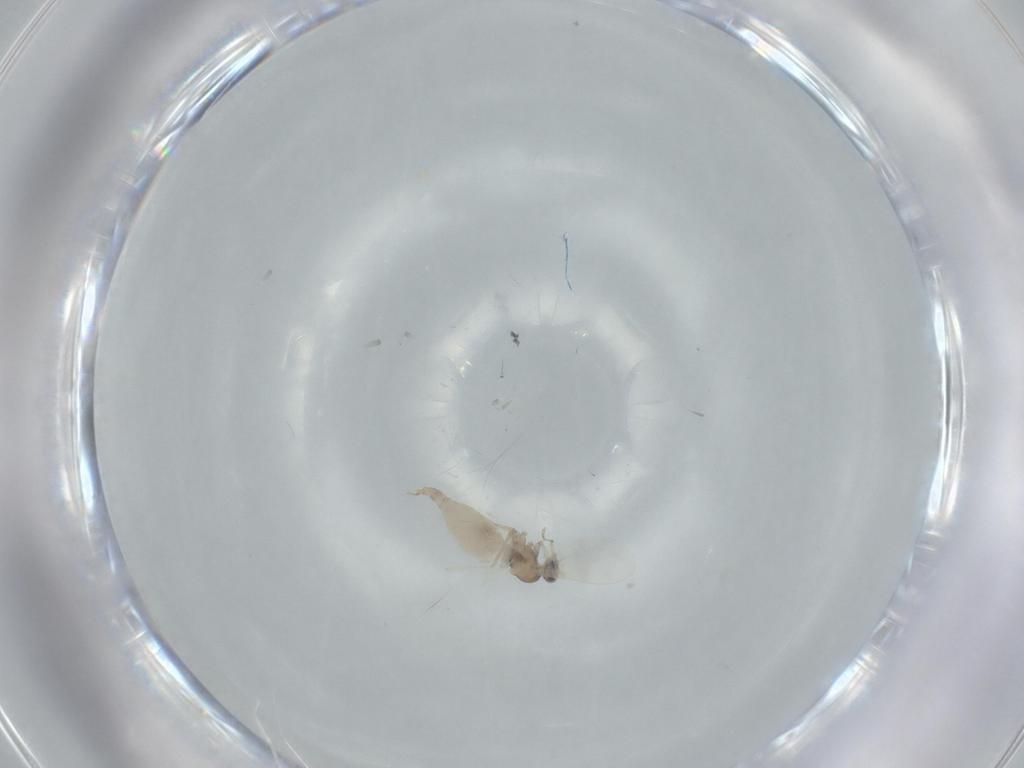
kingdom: Animalia
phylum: Arthropoda
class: Insecta
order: Diptera
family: Cecidomyiidae
